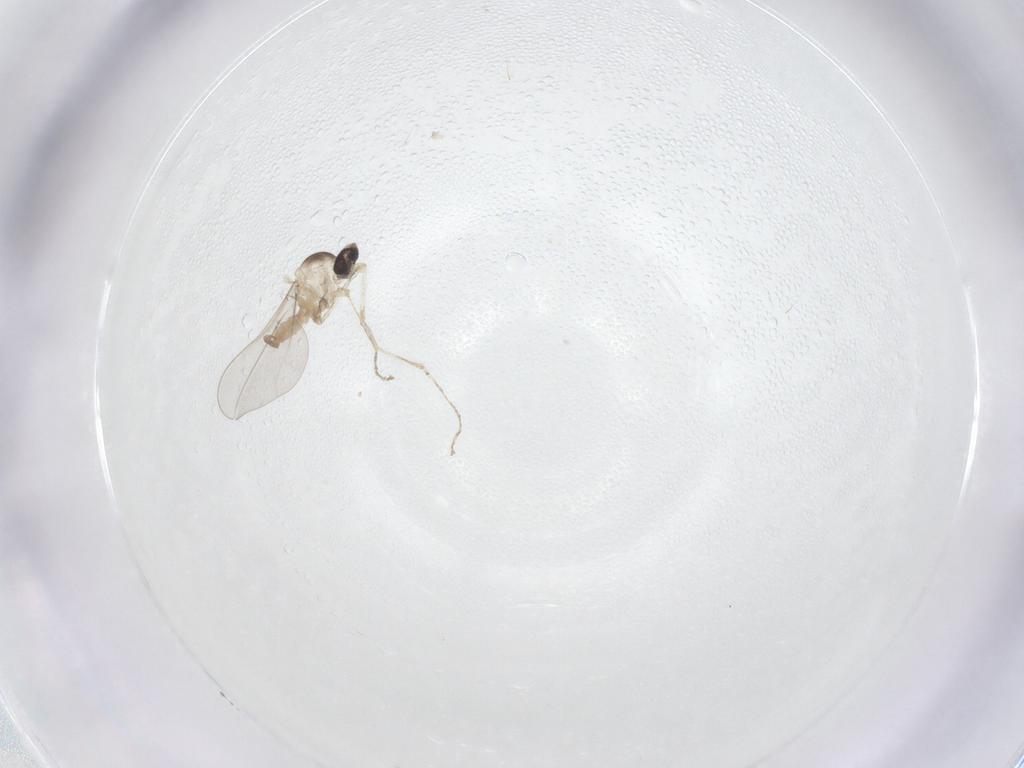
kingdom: Animalia
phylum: Arthropoda
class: Insecta
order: Diptera
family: Cecidomyiidae
